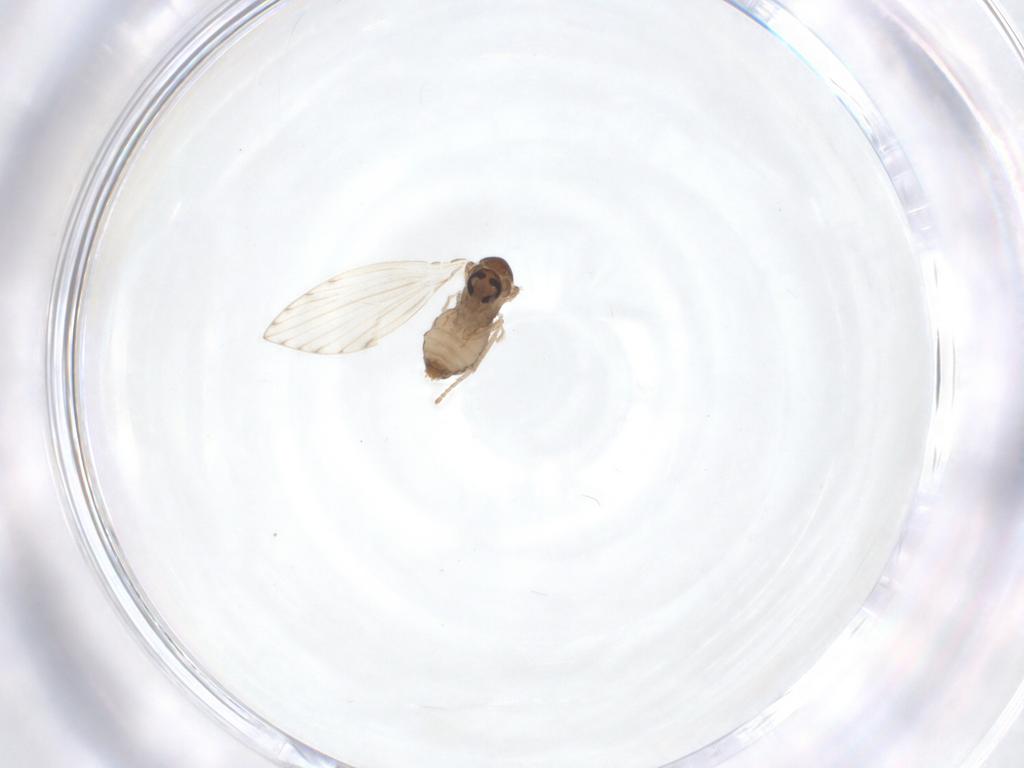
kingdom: Animalia
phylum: Arthropoda
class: Insecta
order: Diptera
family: Psychodidae
